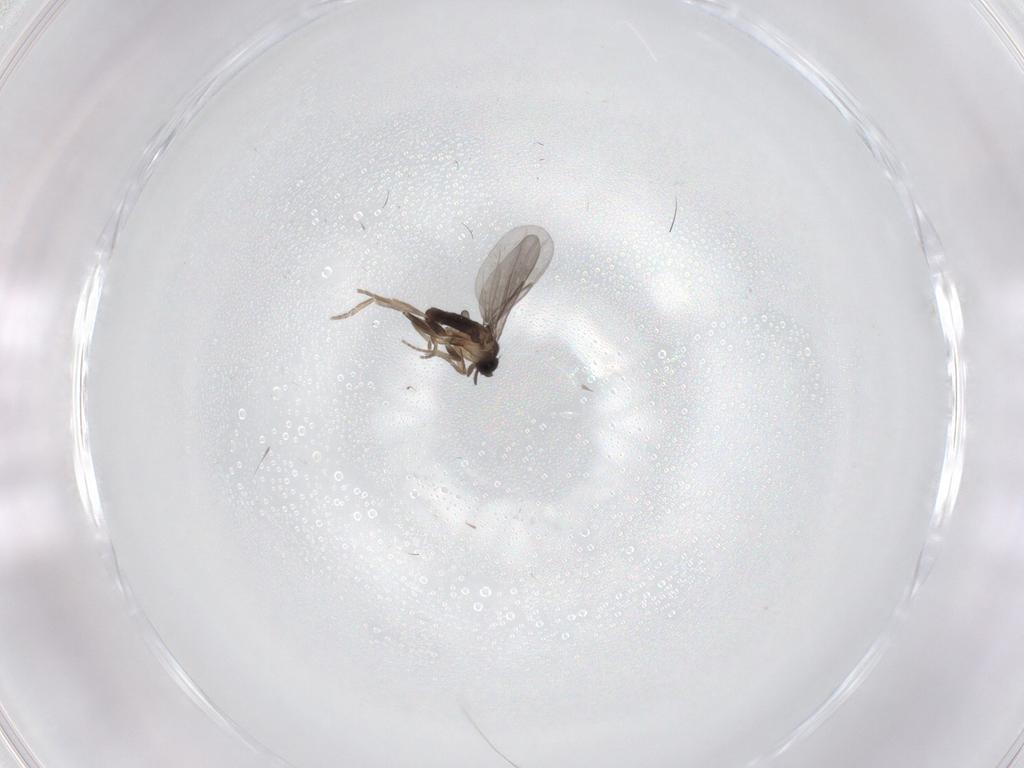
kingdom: Animalia
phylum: Arthropoda
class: Insecta
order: Diptera
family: Cecidomyiidae
